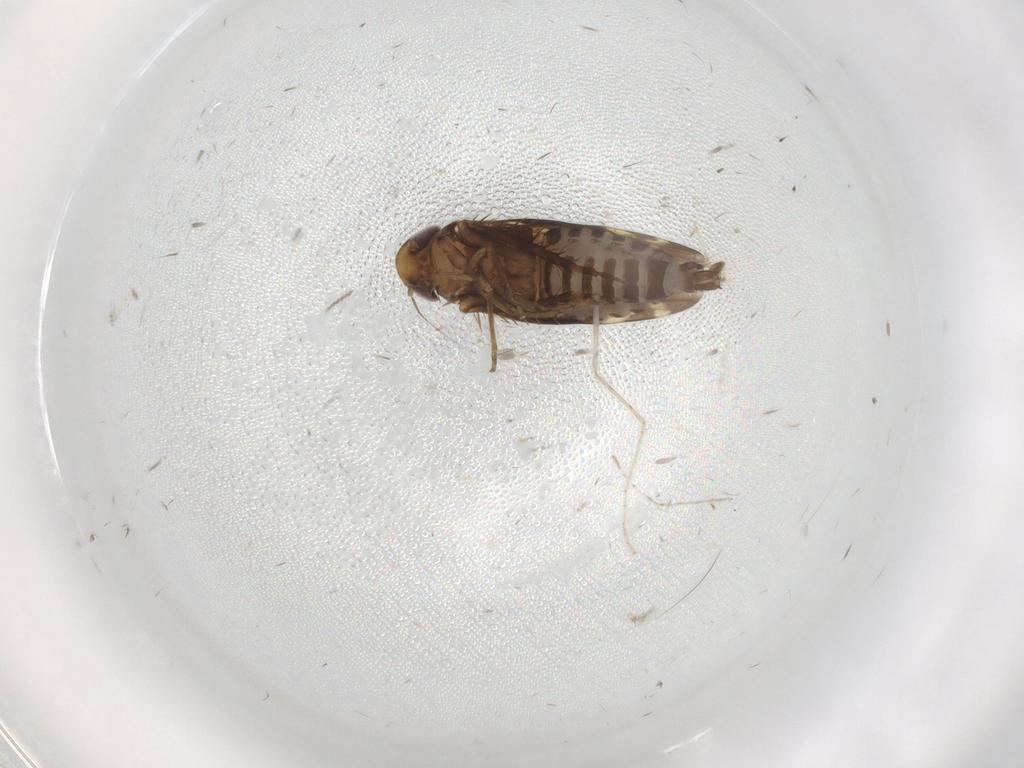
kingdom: Animalia
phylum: Arthropoda
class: Insecta
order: Hemiptera
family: Cicadellidae
